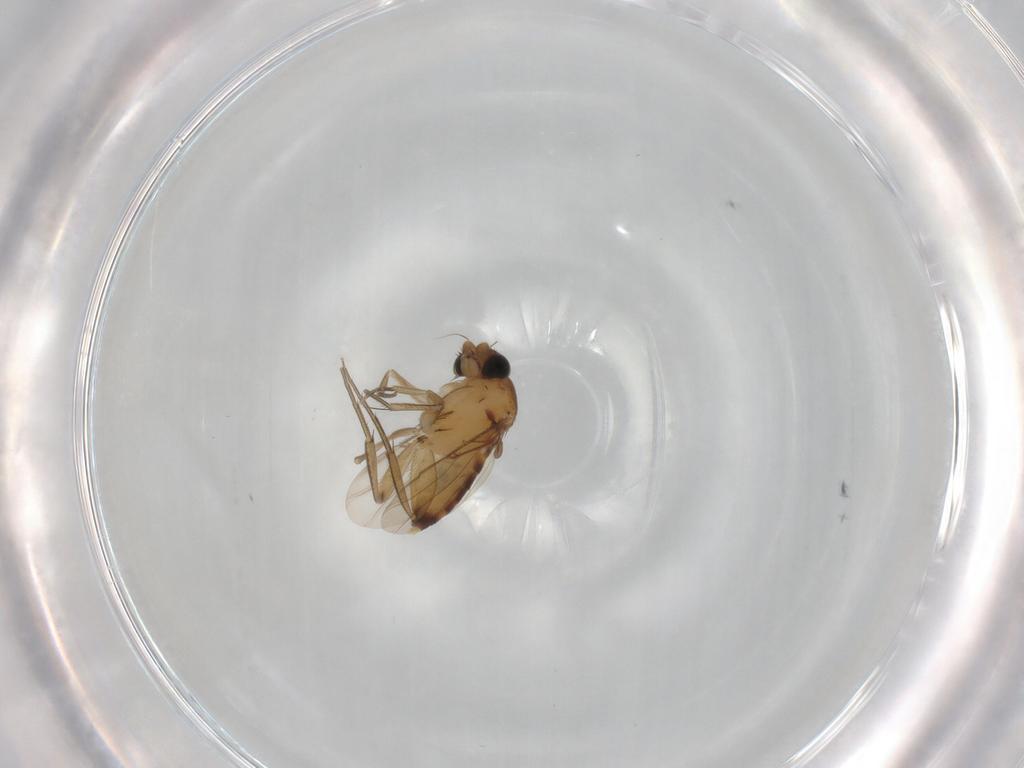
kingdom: Animalia
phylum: Arthropoda
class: Insecta
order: Diptera
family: Phoridae
